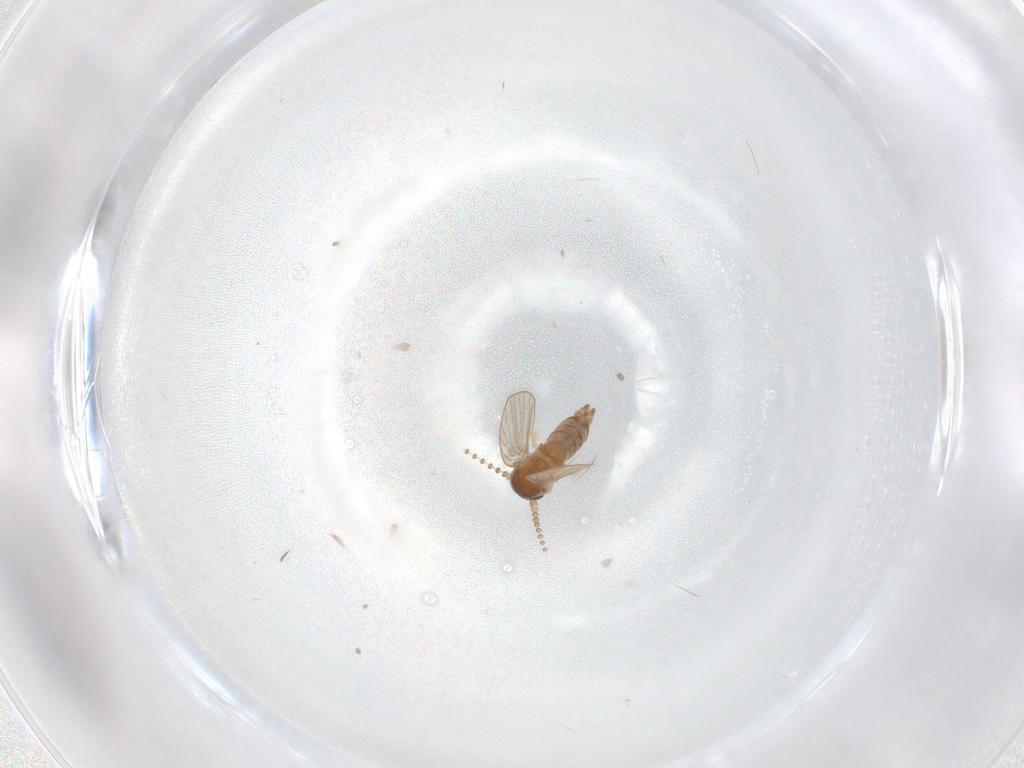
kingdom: Animalia
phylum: Arthropoda
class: Insecta
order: Diptera
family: Psychodidae
